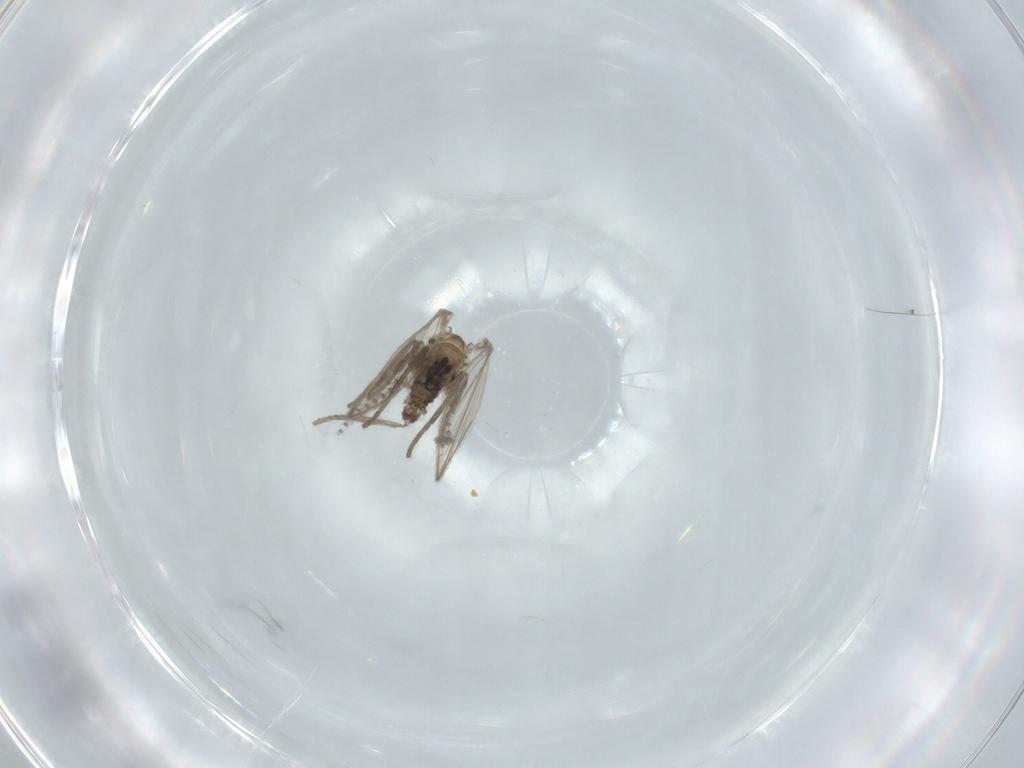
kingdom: Animalia
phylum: Arthropoda
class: Insecta
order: Diptera
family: Psychodidae
